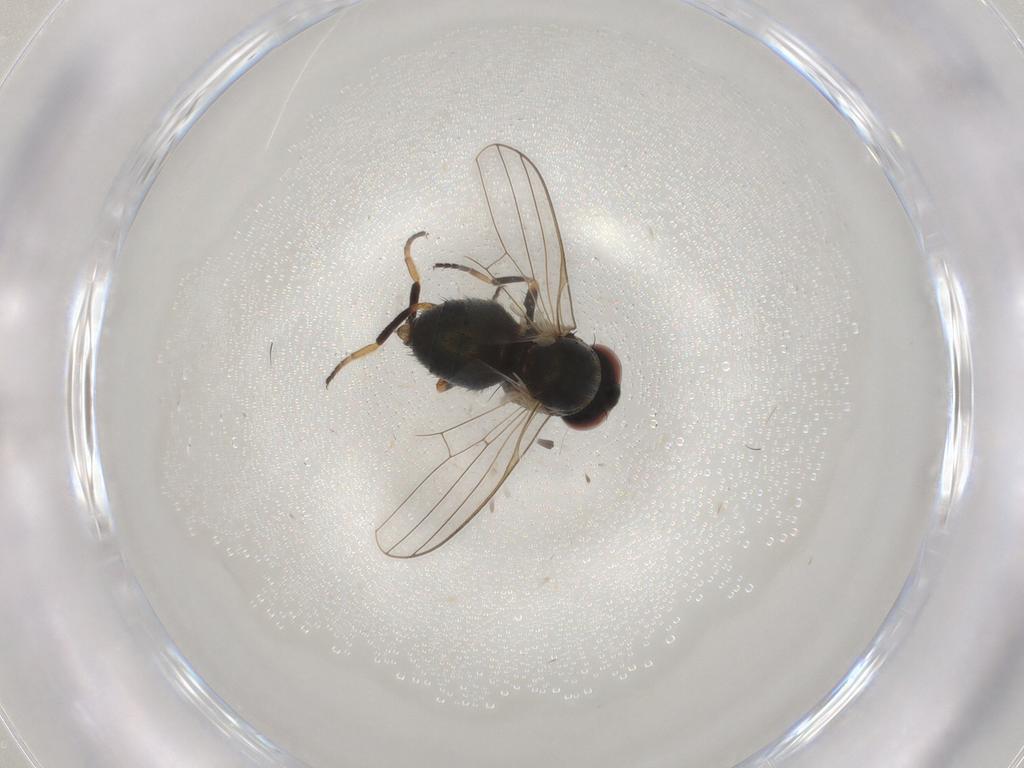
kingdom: Animalia
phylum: Arthropoda
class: Insecta
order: Diptera
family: Chamaemyiidae
